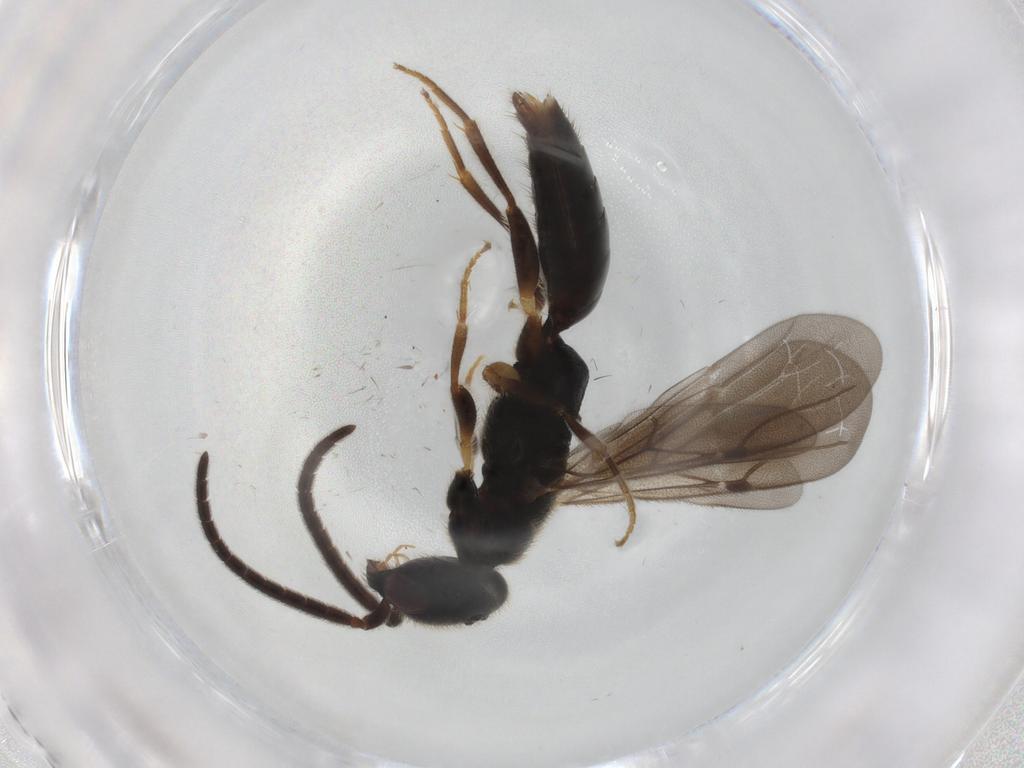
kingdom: Animalia
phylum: Arthropoda
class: Insecta
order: Hymenoptera
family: Bethylidae
